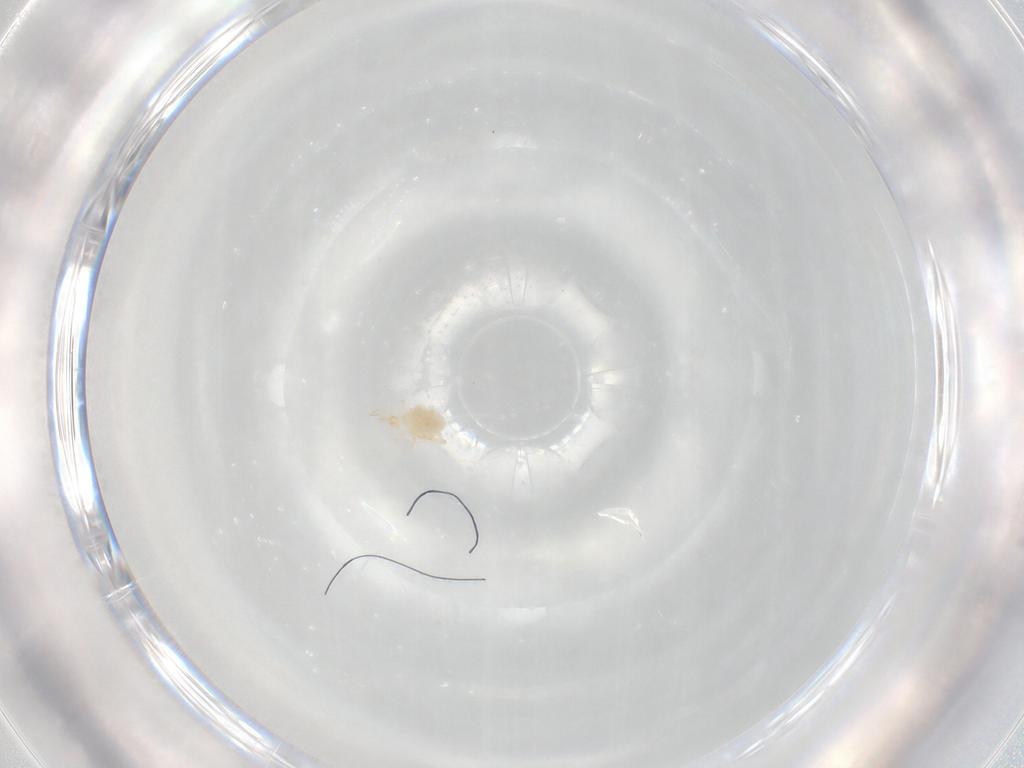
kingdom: Animalia
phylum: Arthropoda
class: Arachnida
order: Trombidiformes
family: Cunaxidae
